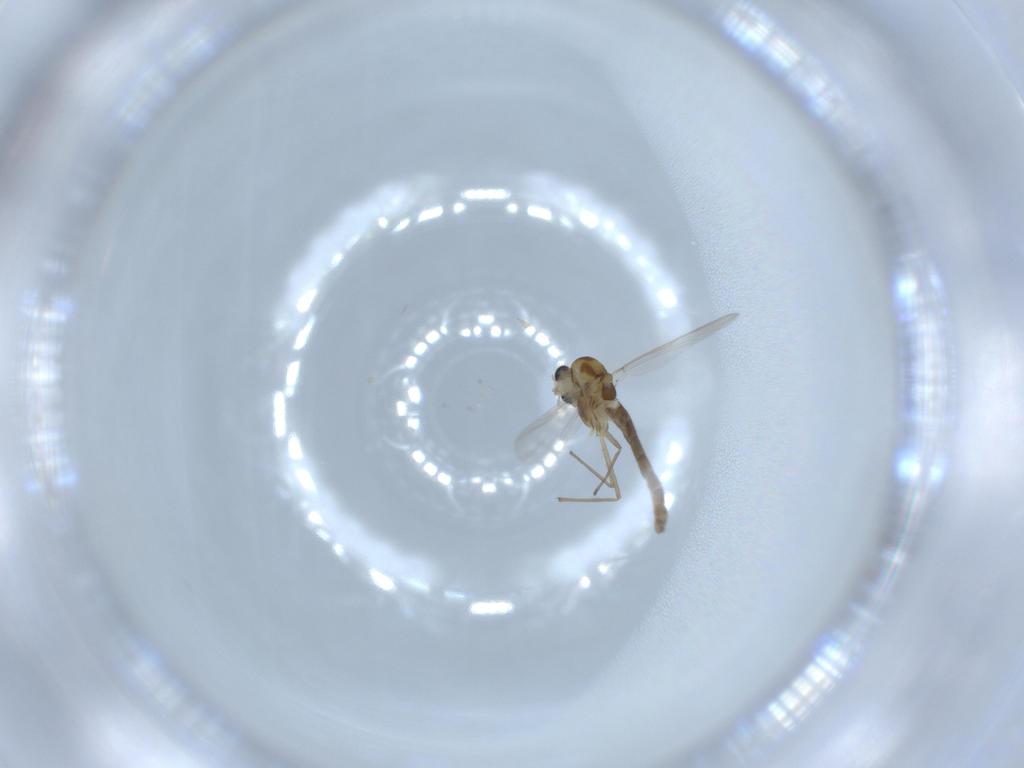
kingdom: Animalia
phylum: Arthropoda
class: Insecta
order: Diptera
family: Chironomidae
